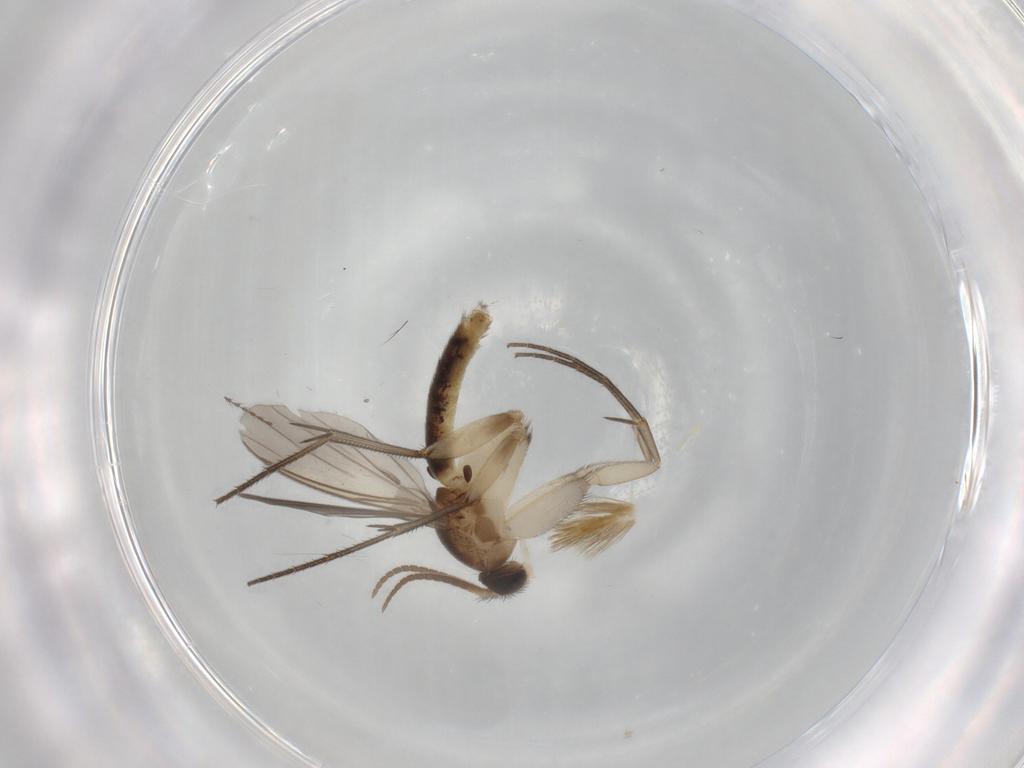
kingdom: Animalia
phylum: Arthropoda
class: Insecta
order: Diptera
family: Mycetophilidae
